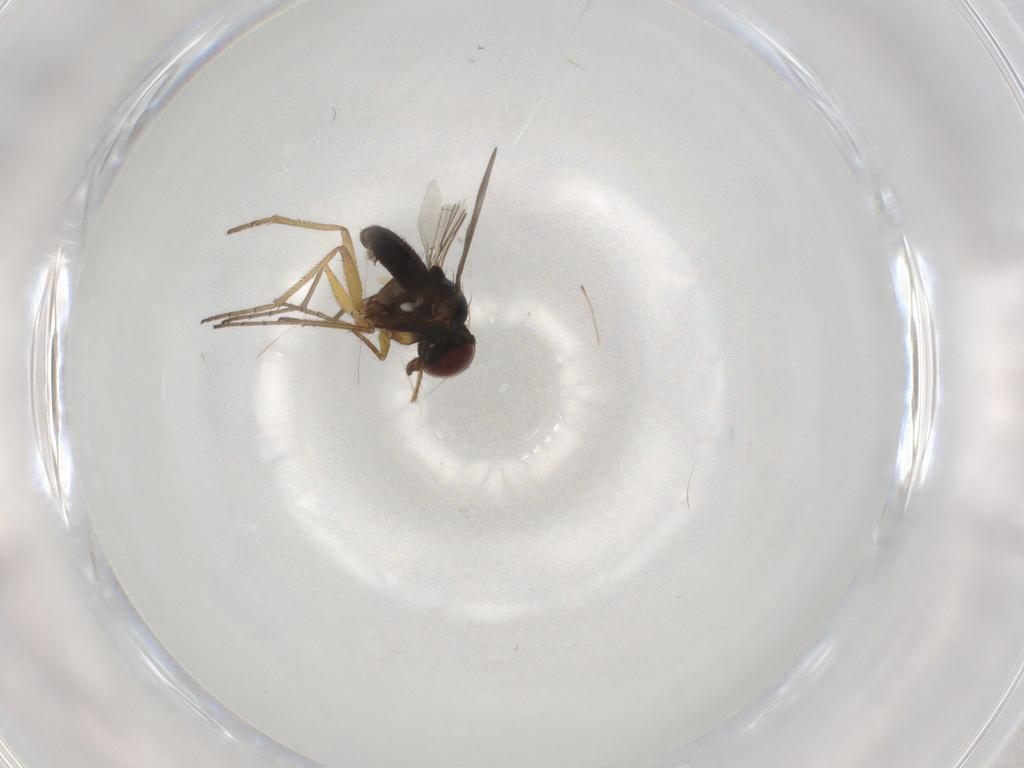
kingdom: Animalia
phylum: Arthropoda
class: Insecta
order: Diptera
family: Dolichopodidae
